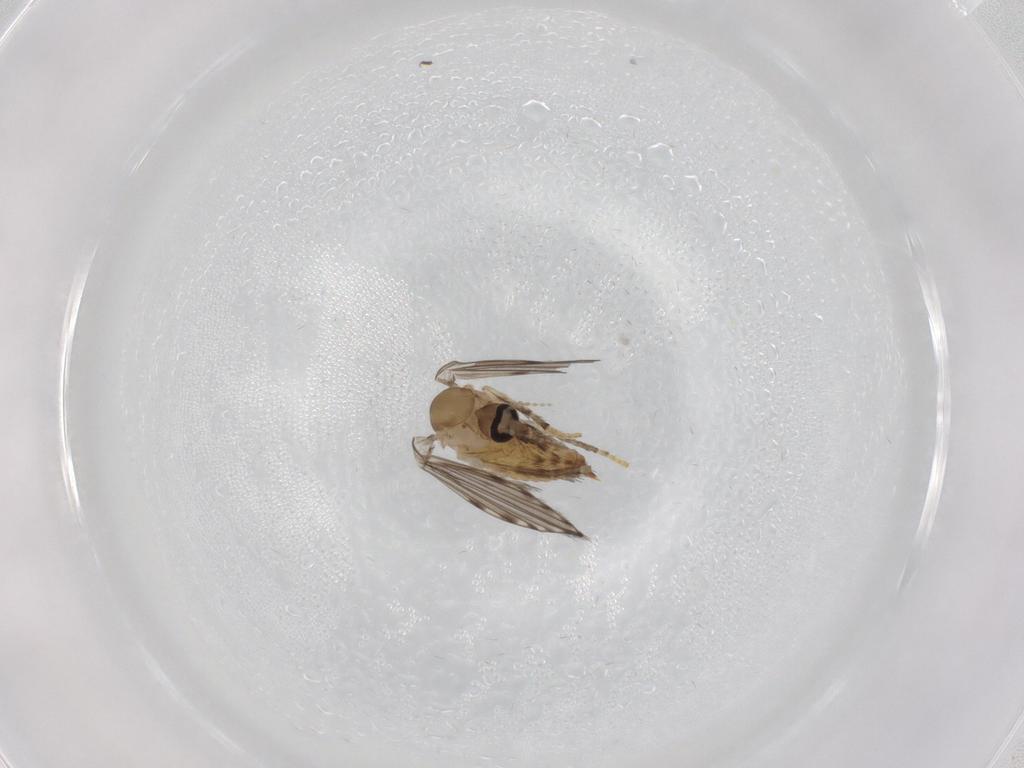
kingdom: Animalia
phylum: Arthropoda
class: Insecta
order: Diptera
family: Psychodidae
